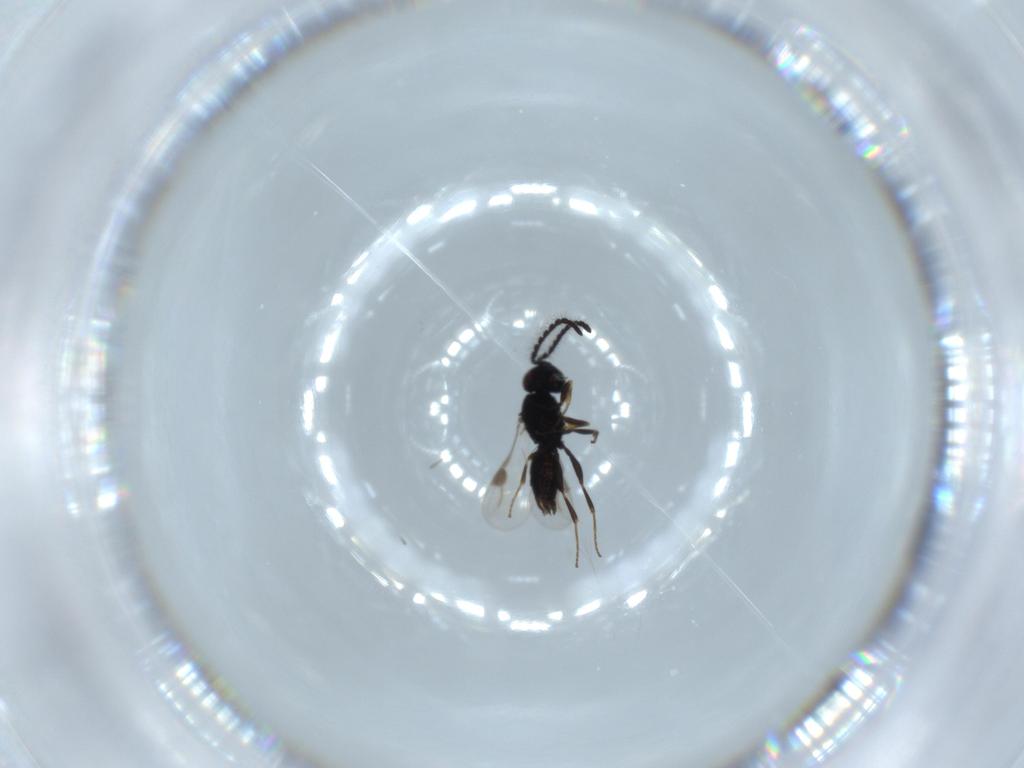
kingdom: Animalia
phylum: Arthropoda
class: Insecta
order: Hymenoptera
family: Megaspilidae
